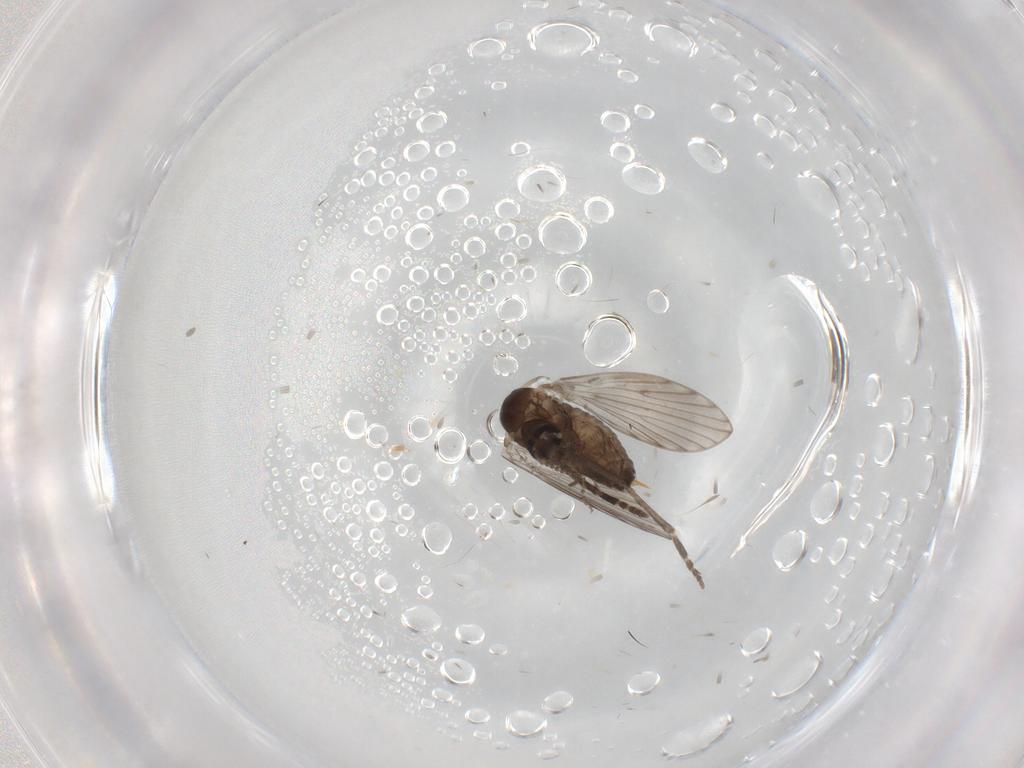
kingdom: Animalia
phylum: Arthropoda
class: Insecta
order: Diptera
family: Psychodidae
